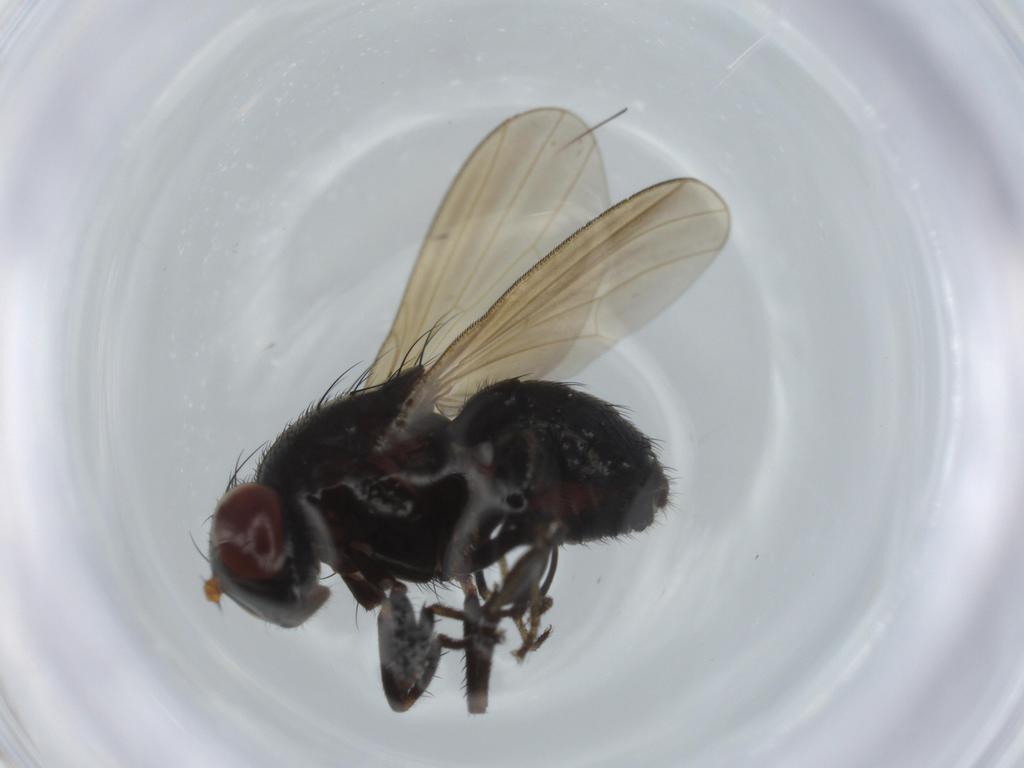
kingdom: Animalia
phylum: Arthropoda
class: Insecta
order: Diptera
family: Lauxaniidae
